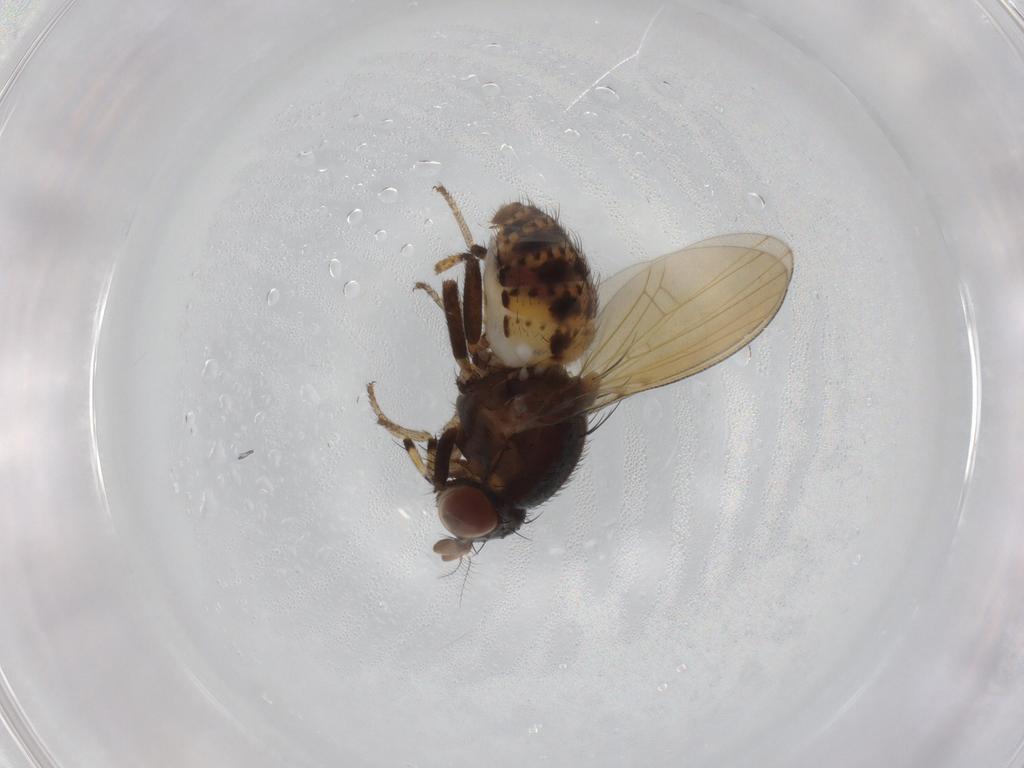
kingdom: Animalia
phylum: Arthropoda
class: Insecta
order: Diptera
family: Lauxaniidae
